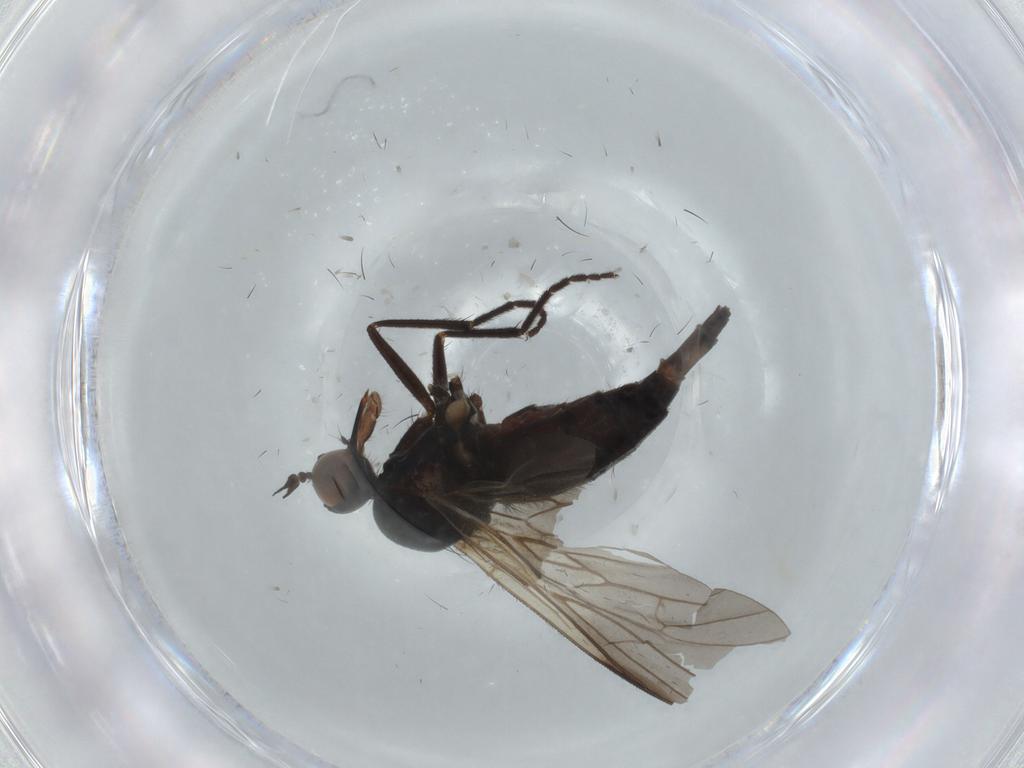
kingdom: Animalia
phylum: Arthropoda
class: Insecta
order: Diptera
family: Empididae
